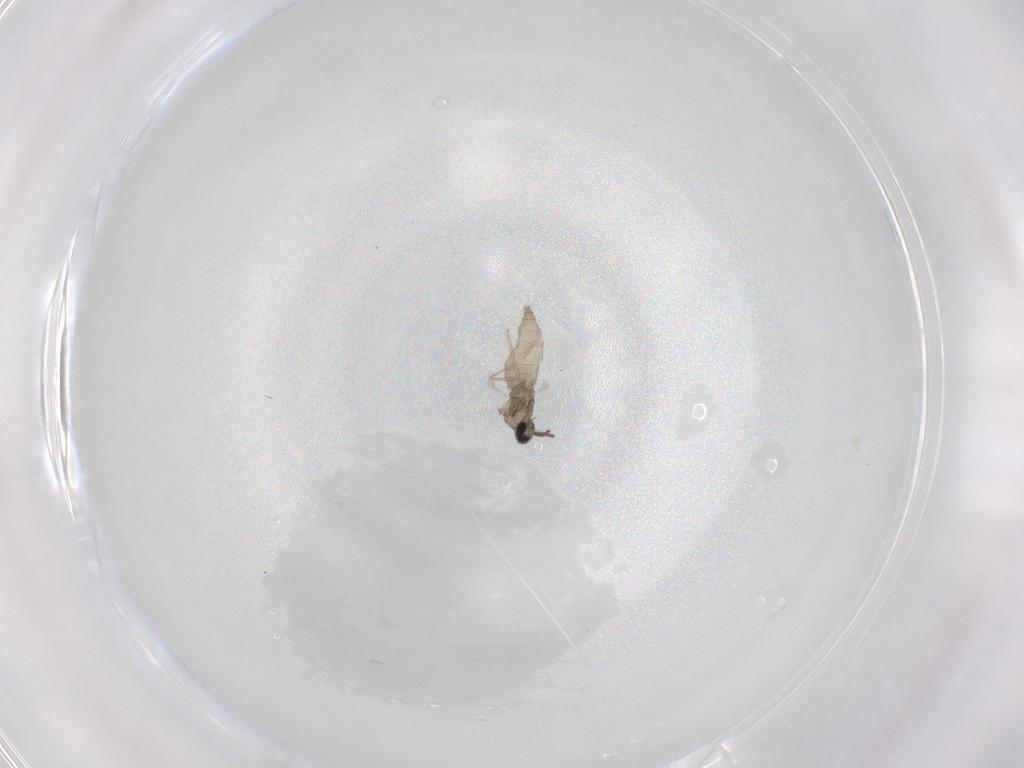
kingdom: Animalia
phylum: Arthropoda
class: Insecta
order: Diptera
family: Cecidomyiidae
